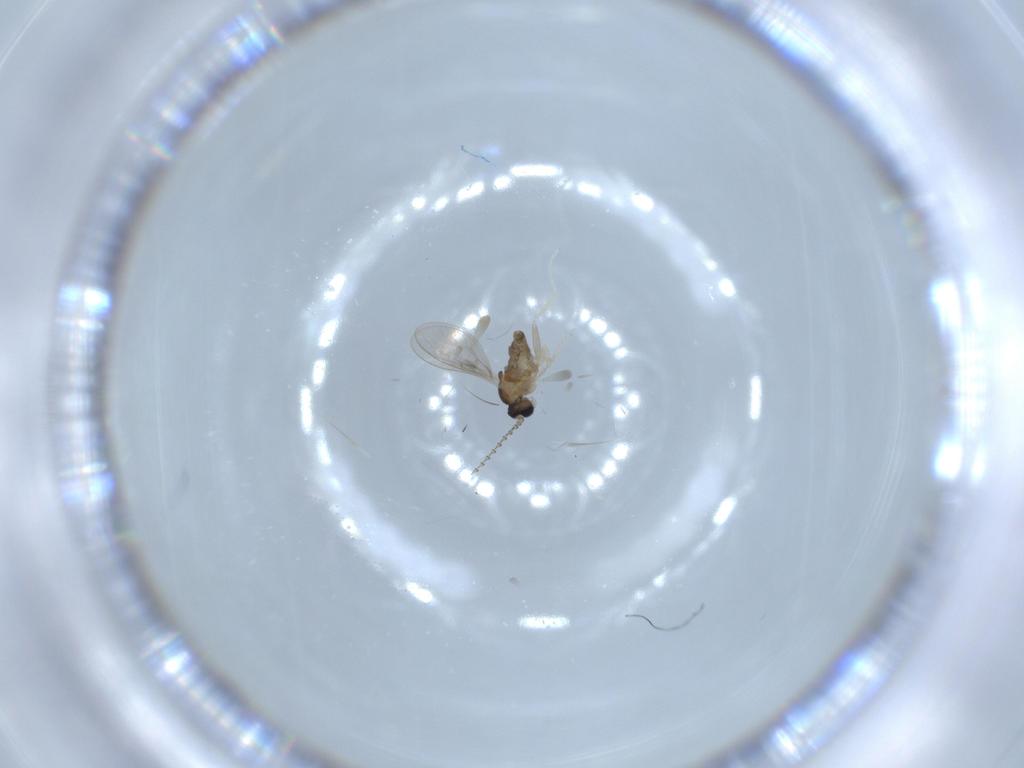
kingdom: Animalia
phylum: Arthropoda
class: Insecta
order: Diptera
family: Cecidomyiidae
